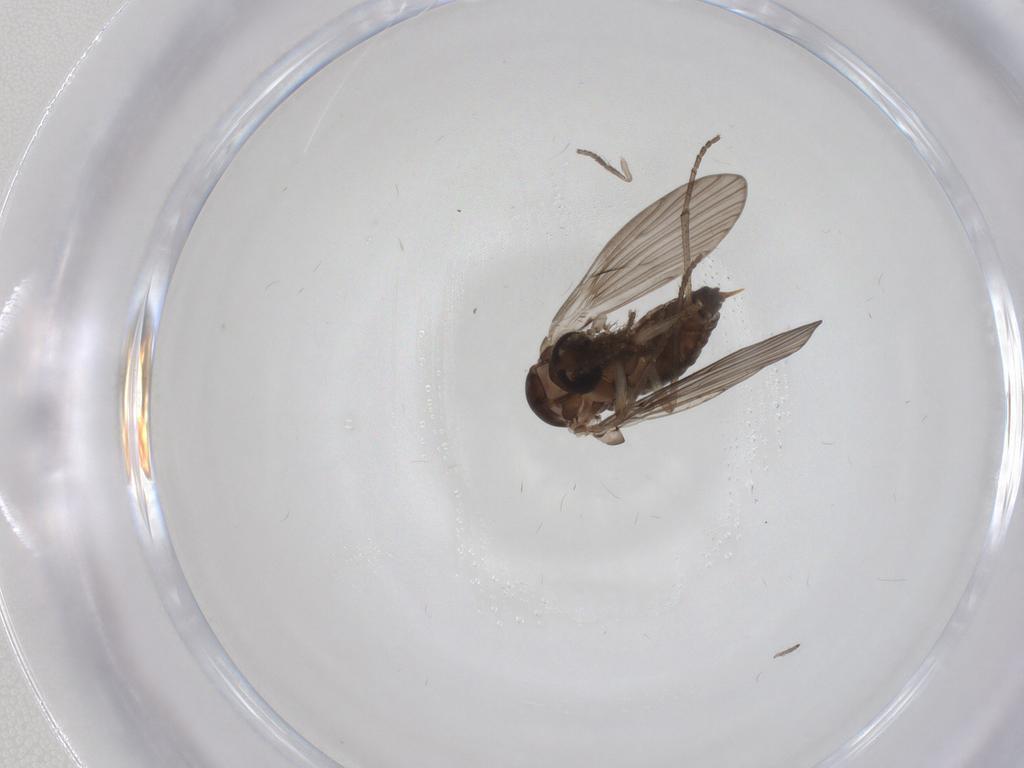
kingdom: Animalia
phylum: Arthropoda
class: Insecta
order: Diptera
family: Psychodidae
